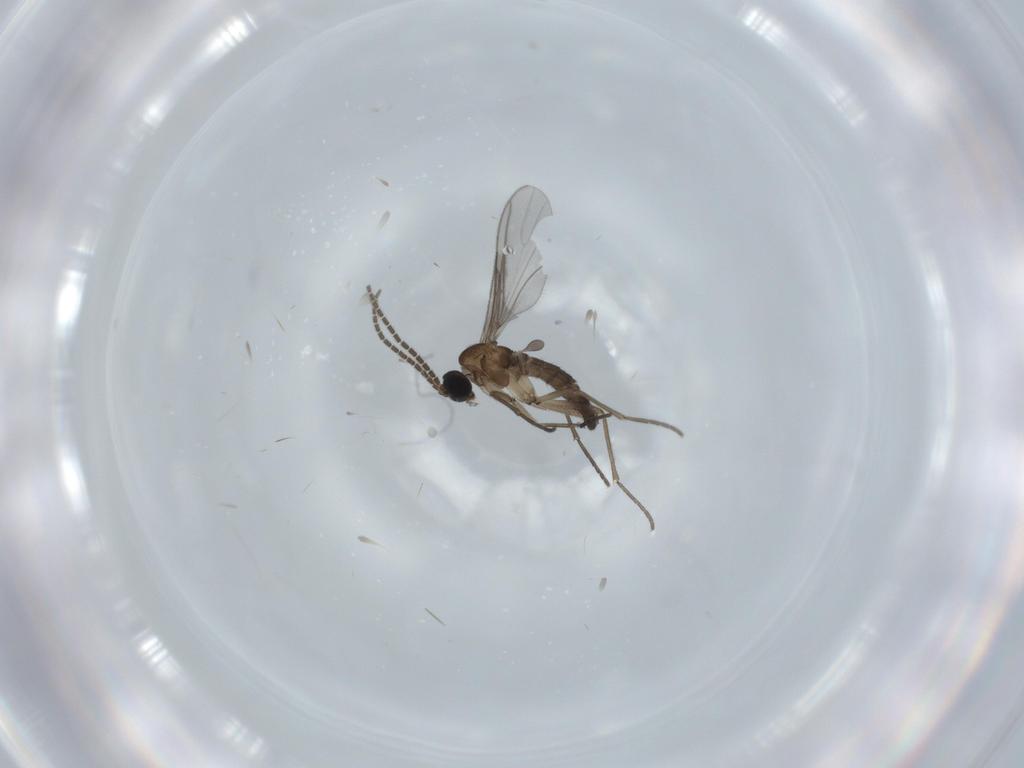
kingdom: Animalia
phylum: Arthropoda
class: Insecta
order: Diptera
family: Sciaridae
